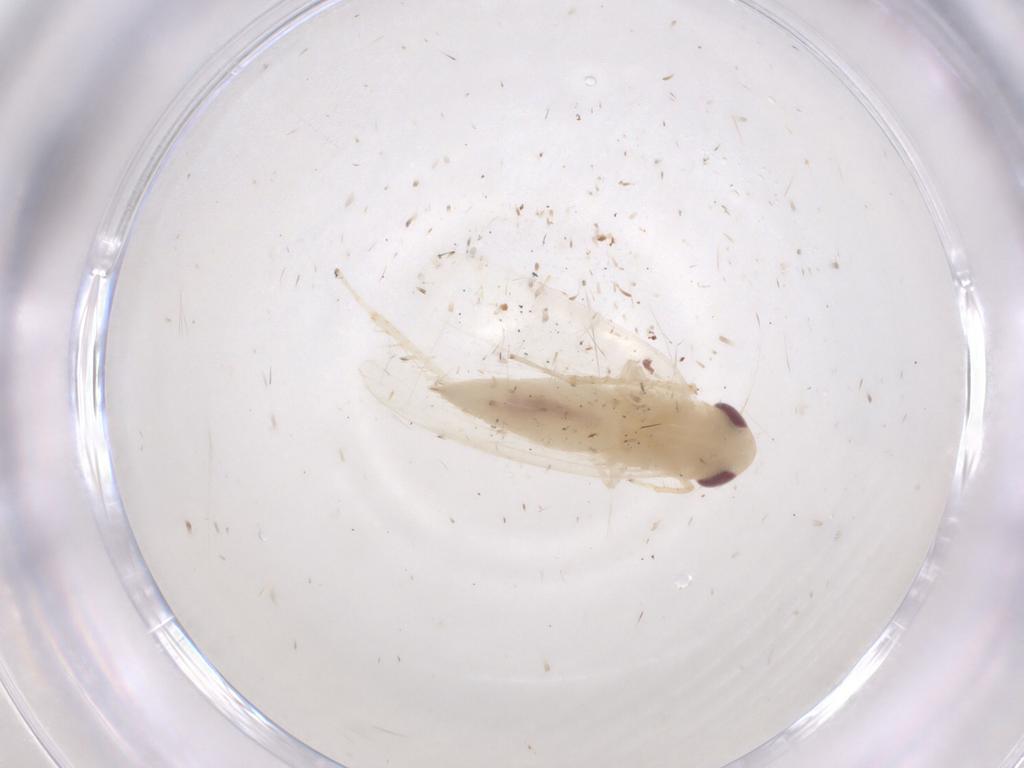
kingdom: Animalia
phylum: Arthropoda
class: Insecta
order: Hemiptera
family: Cicadellidae
